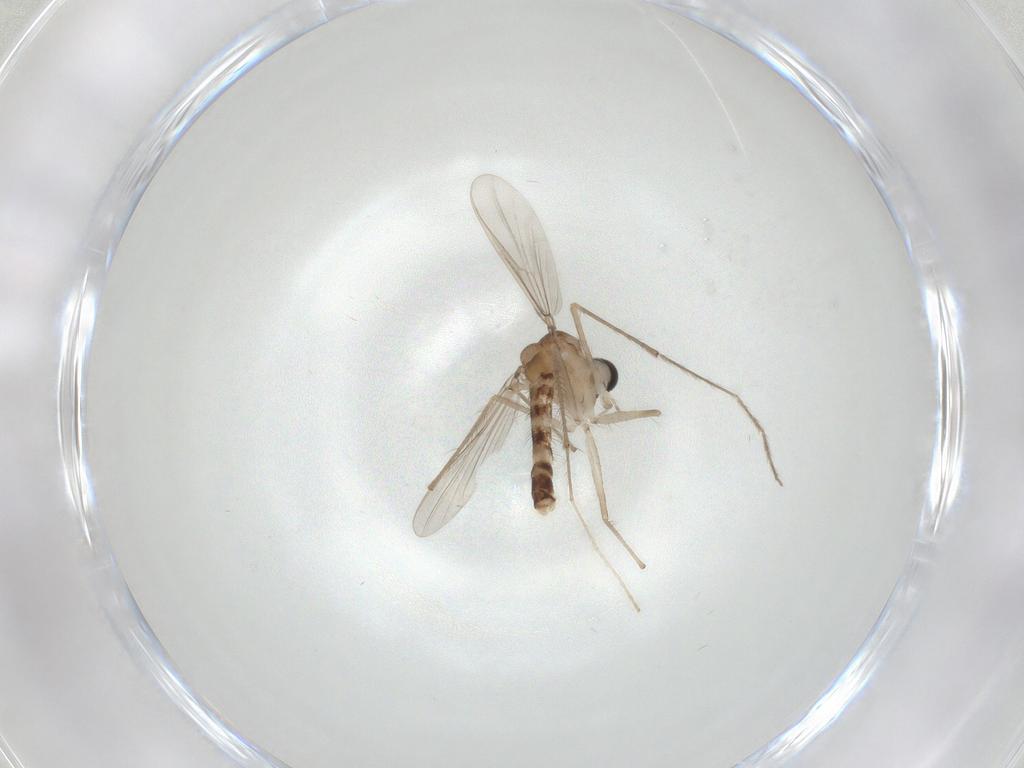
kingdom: Animalia
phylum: Arthropoda
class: Insecta
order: Diptera
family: Chironomidae
